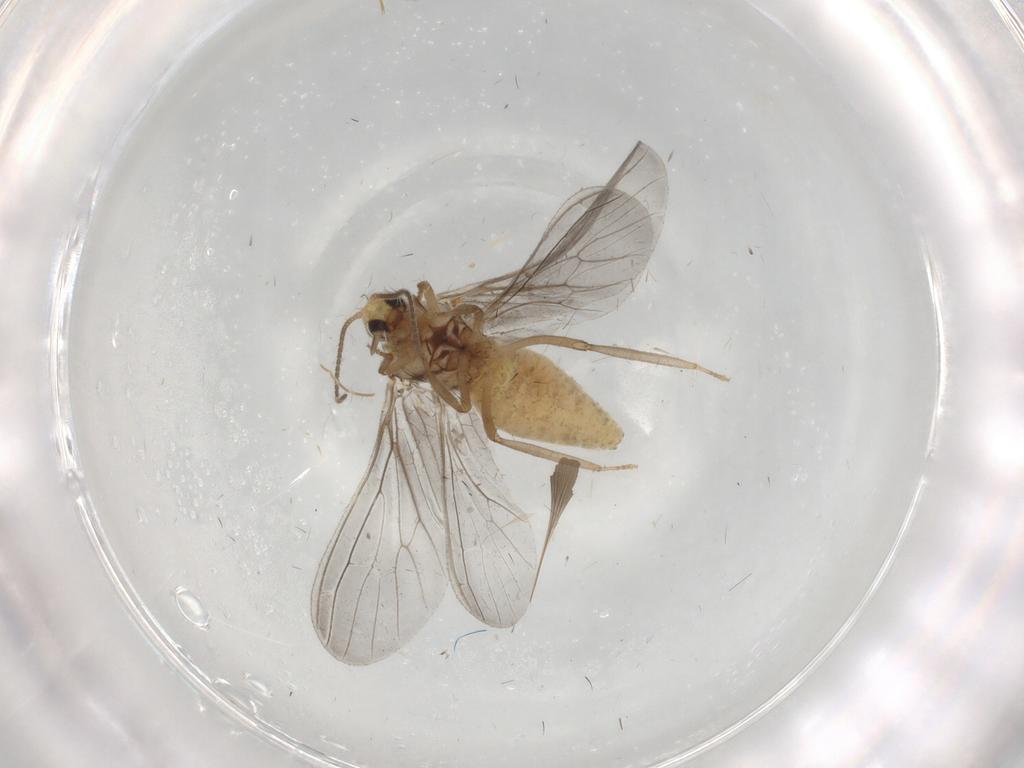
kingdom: Animalia
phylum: Arthropoda
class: Insecta
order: Neuroptera
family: Coniopterygidae
